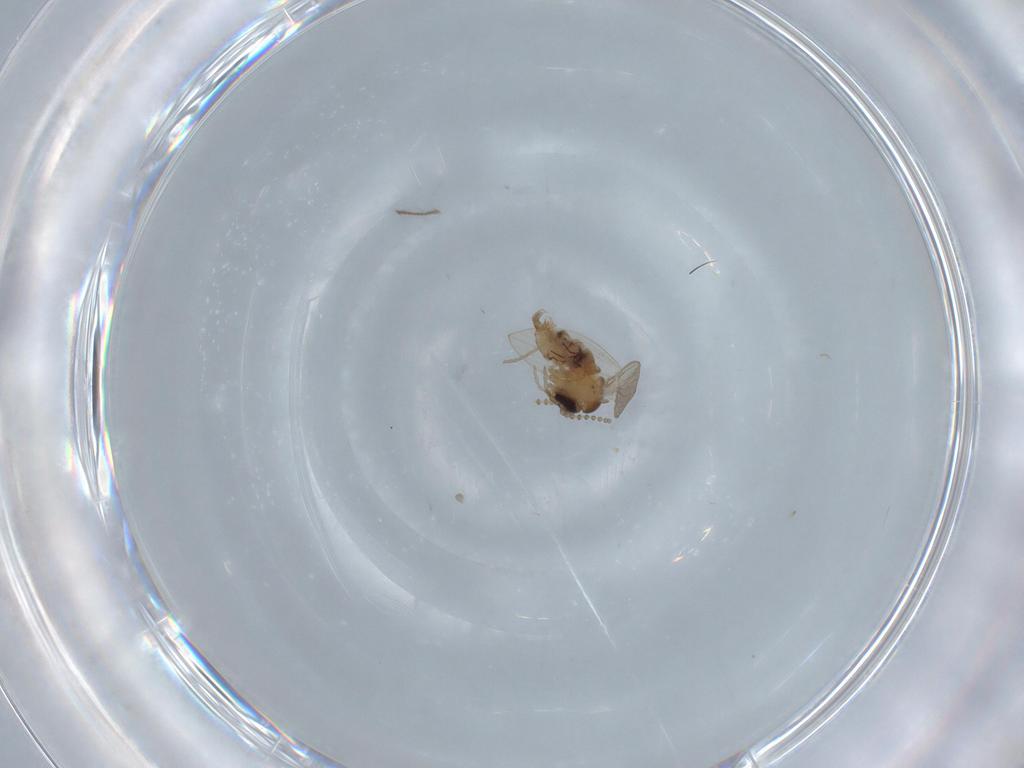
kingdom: Animalia
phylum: Arthropoda
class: Insecta
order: Diptera
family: Psychodidae
